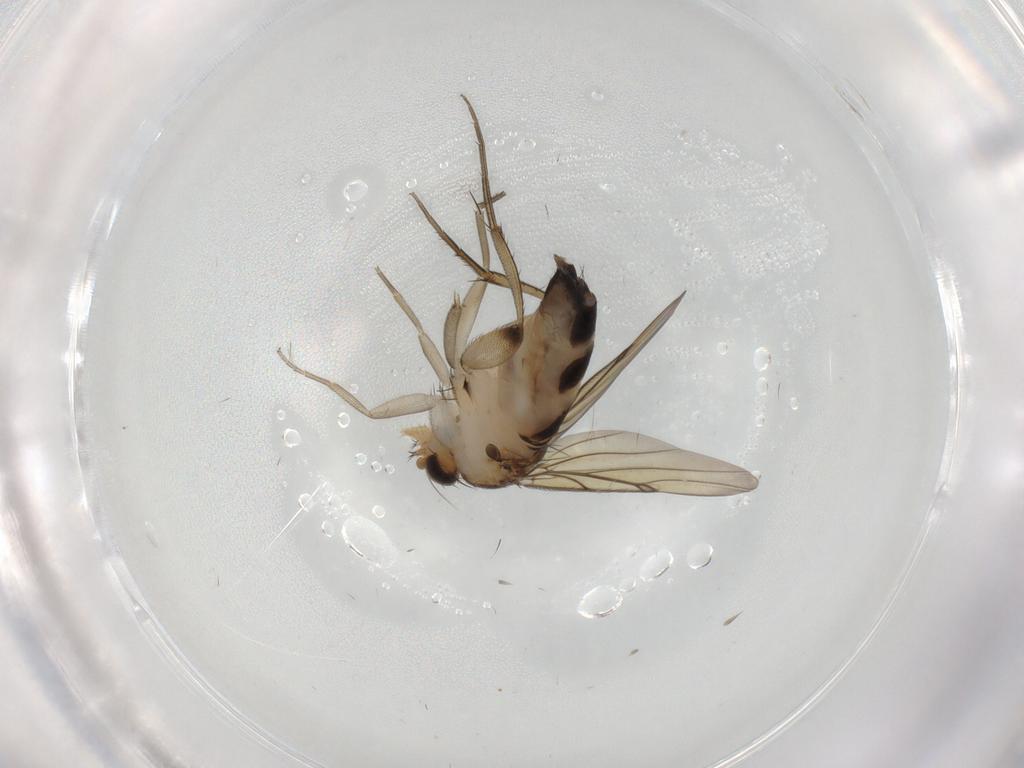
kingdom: Animalia
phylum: Arthropoda
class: Insecta
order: Diptera
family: Phoridae
